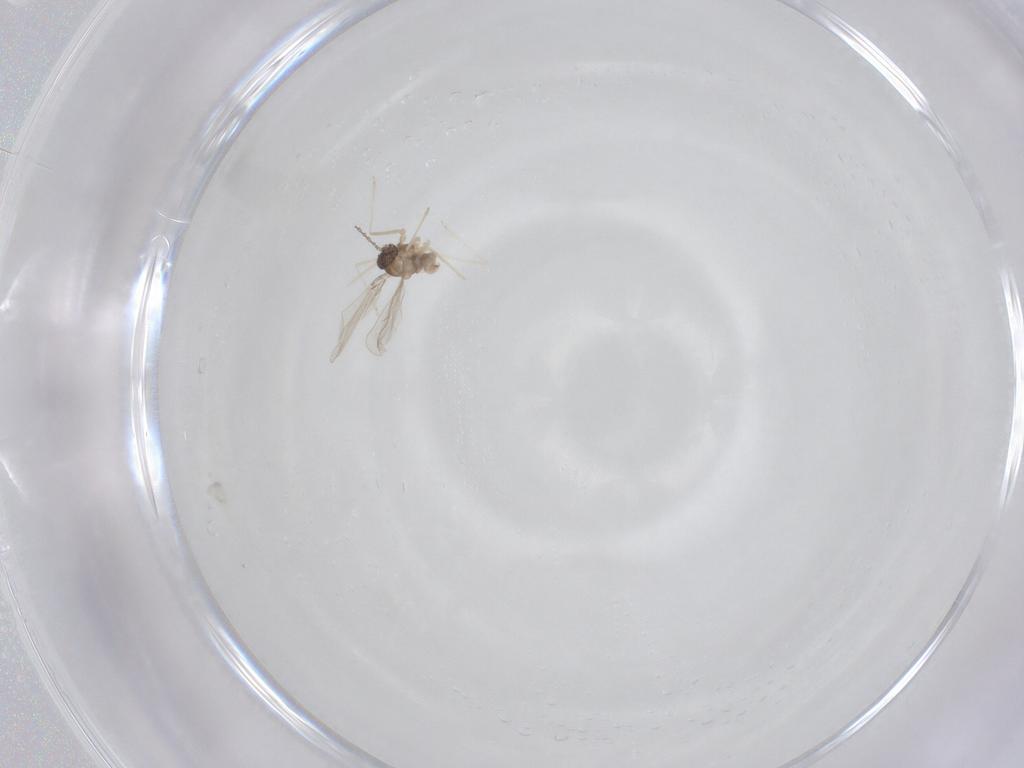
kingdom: Animalia
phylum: Arthropoda
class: Insecta
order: Diptera
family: Cecidomyiidae
